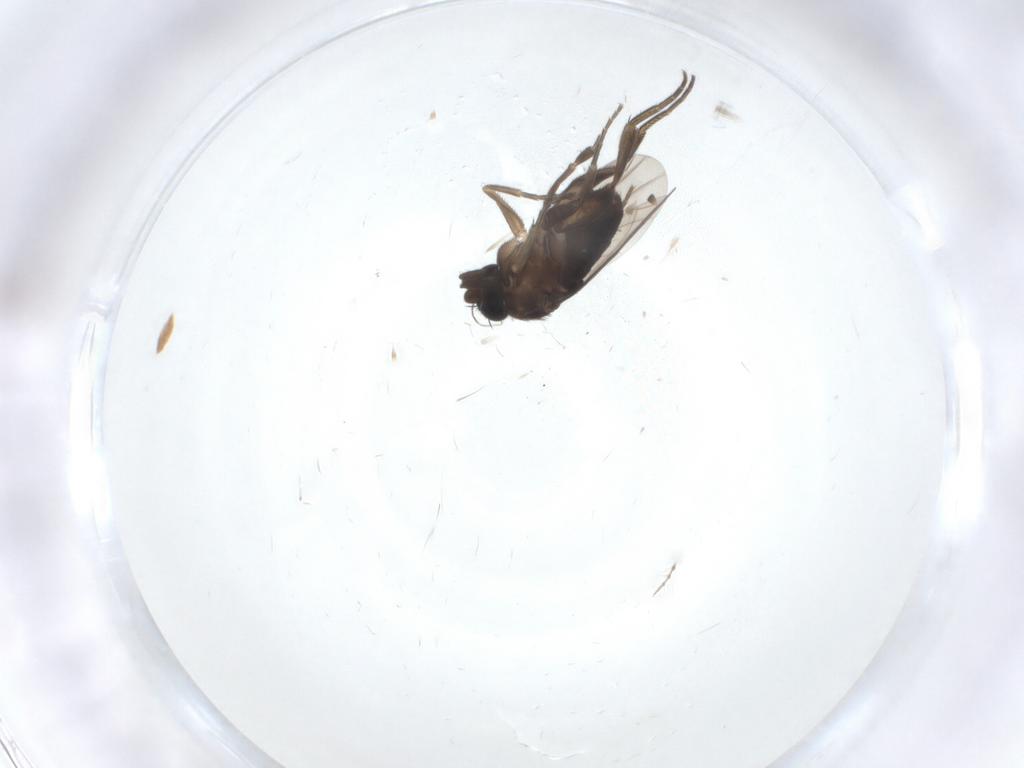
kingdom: Animalia
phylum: Arthropoda
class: Insecta
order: Diptera
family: Phoridae
